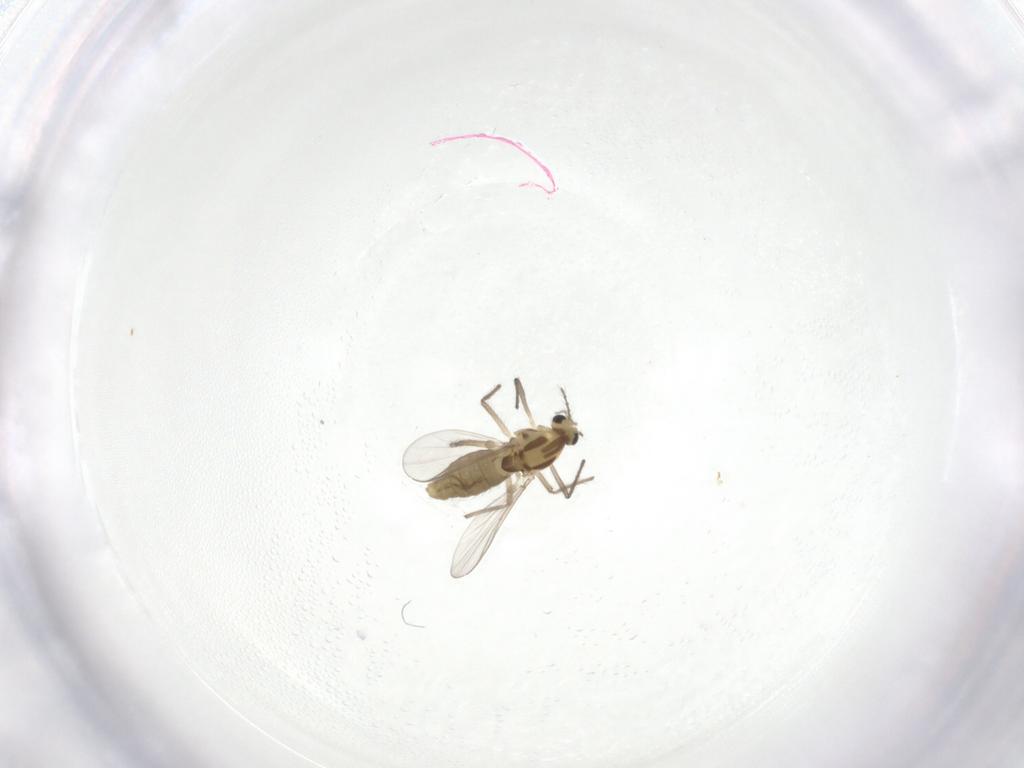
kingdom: Animalia
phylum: Arthropoda
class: Insecta
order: Diptera
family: Chironomidae
